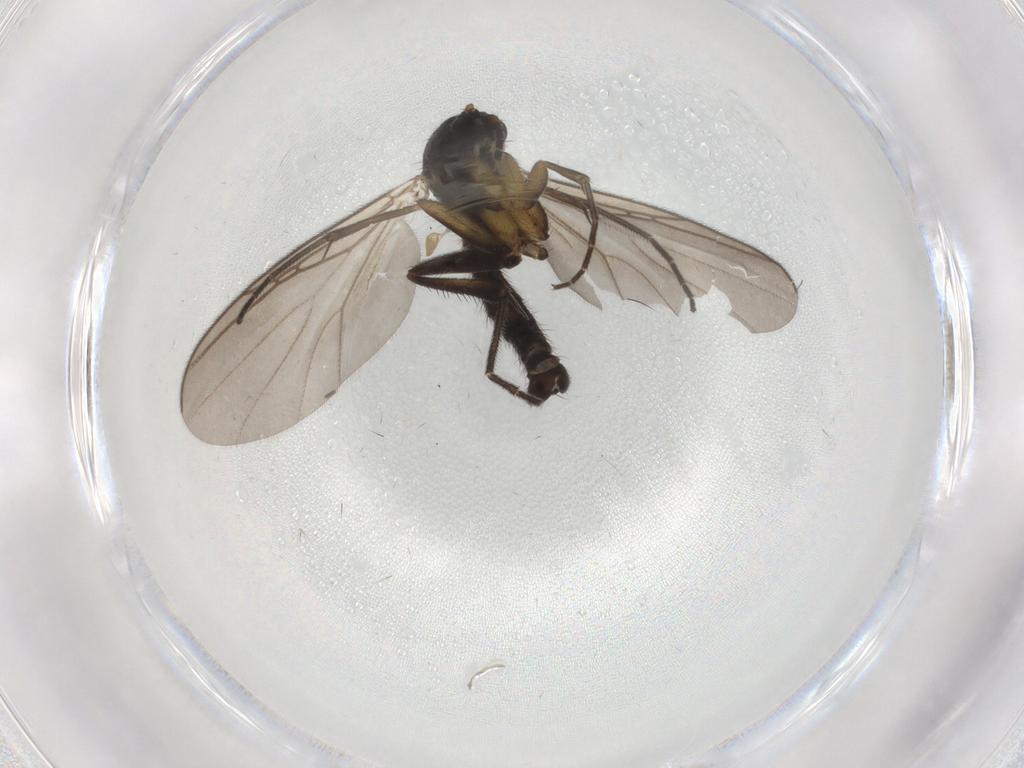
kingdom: Animalia
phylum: Arthropoda
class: Insecta
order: Diptera
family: Mycetophilidae
